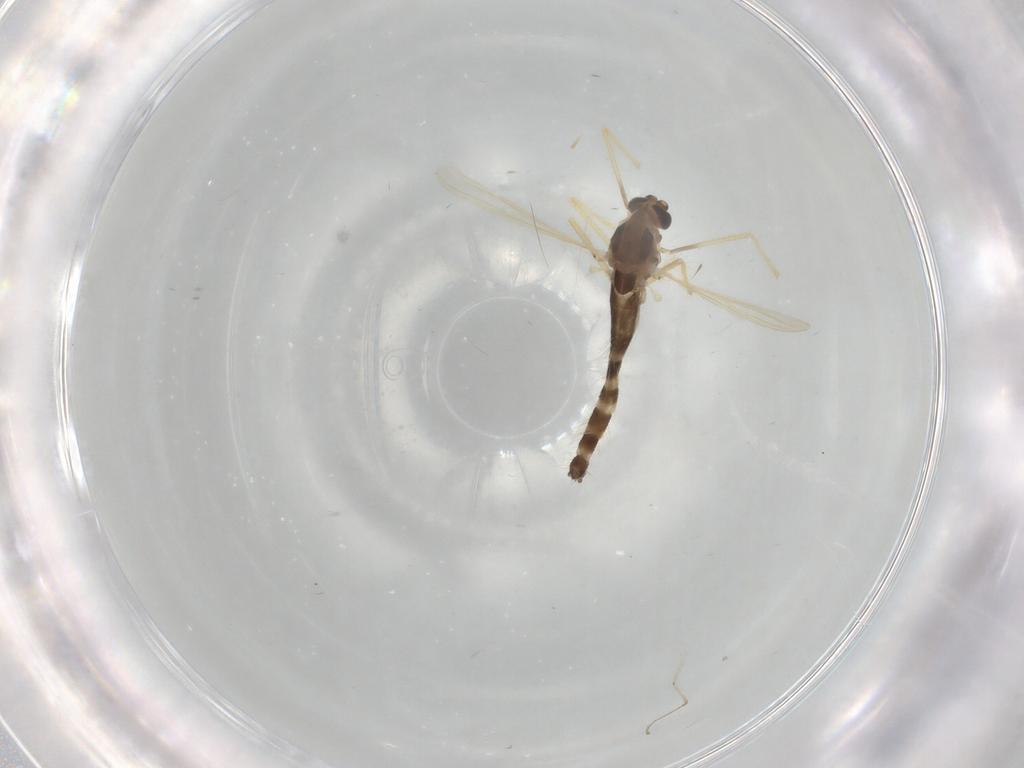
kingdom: Animalia
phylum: Arthropoda
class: Insecta
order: Diptera
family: Chironomidae
